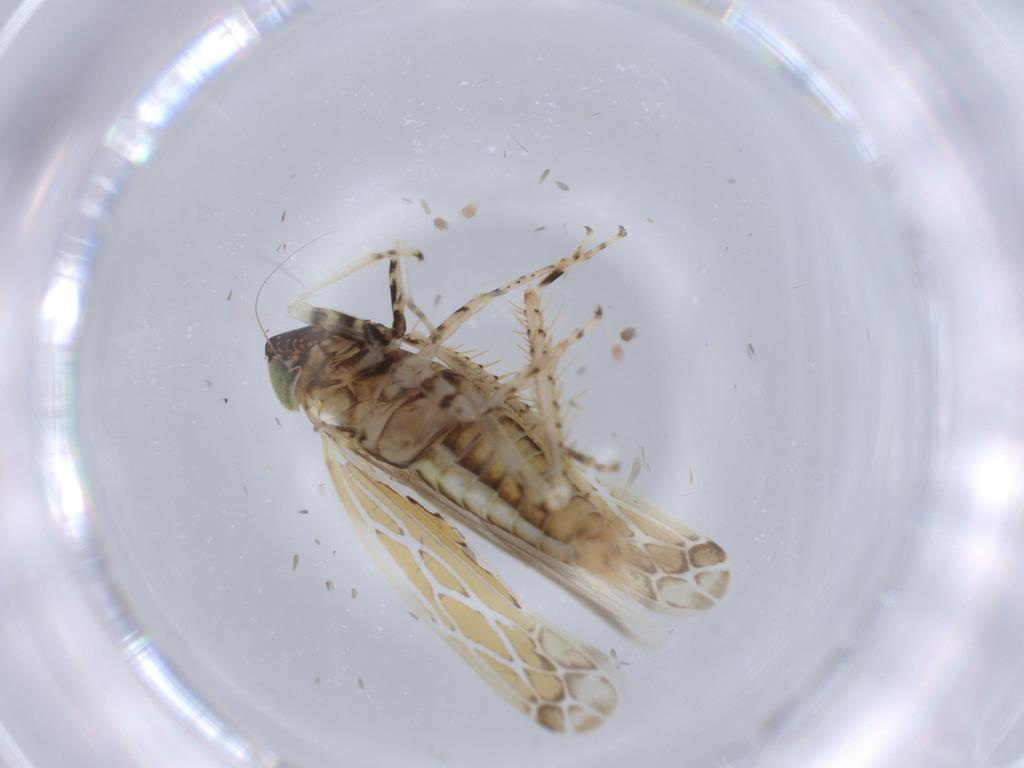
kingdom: Animalia
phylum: Arthropoda
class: Insecta
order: Hemiptera
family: Cicadellidae
